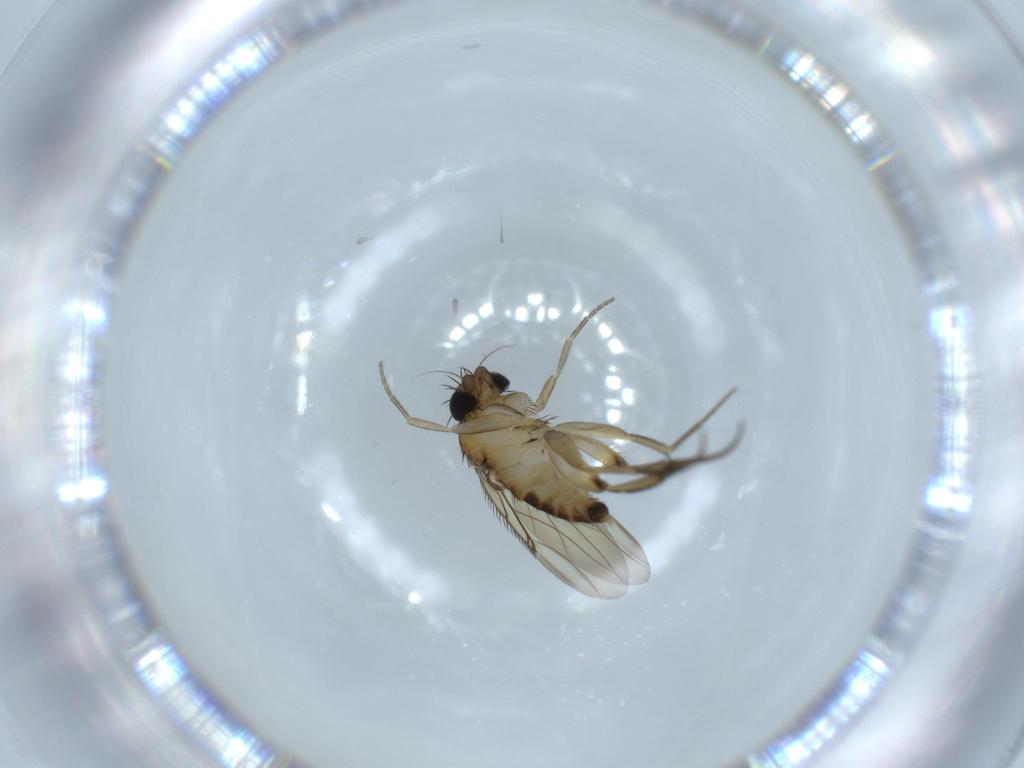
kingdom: Animalia
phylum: Arthropoda
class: Insecta
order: Diptera
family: Phoridae
